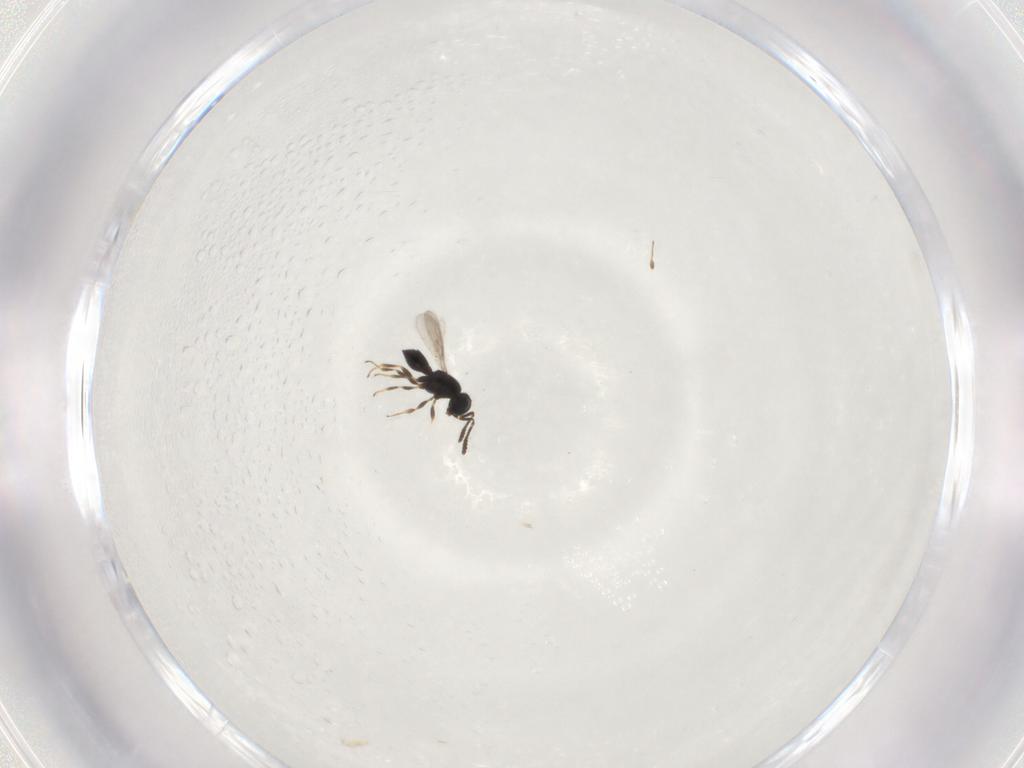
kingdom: Animalia
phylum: Arthropoda
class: Insecta
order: Hymenoptera
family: Scelionidae
